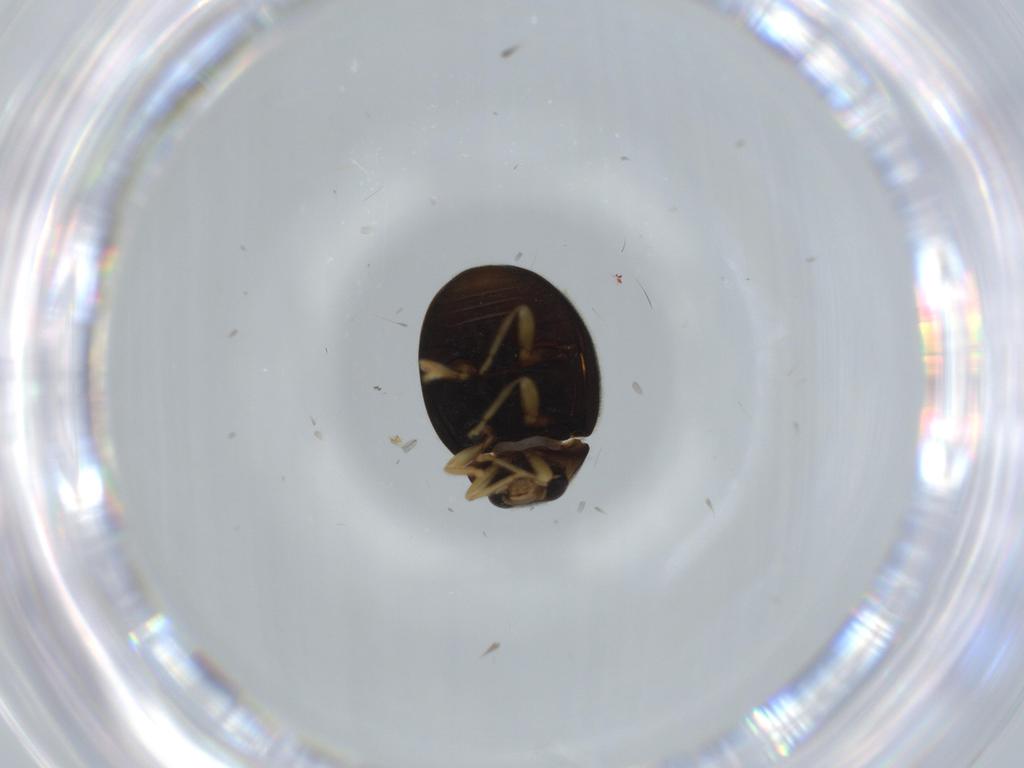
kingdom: Animalia
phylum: Arthropoda
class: Insecta
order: Coleoptera
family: Coccinellidae
